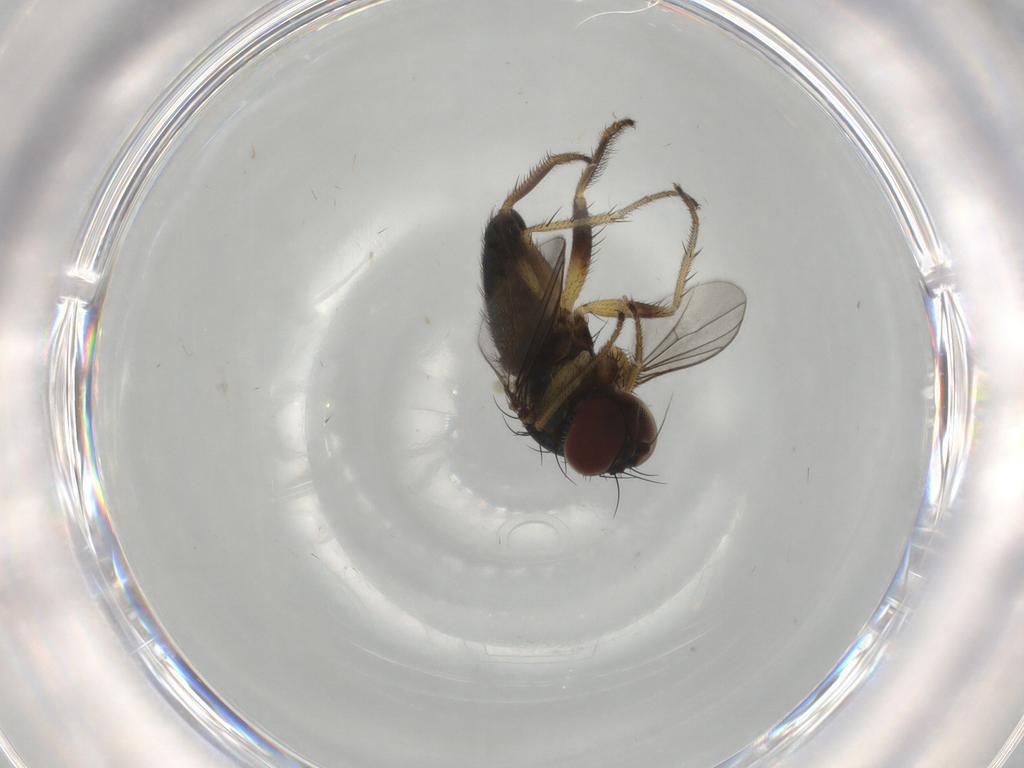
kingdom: Animalia
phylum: Arthropoda
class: Insecta
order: Diptera
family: Dolichopodidae
